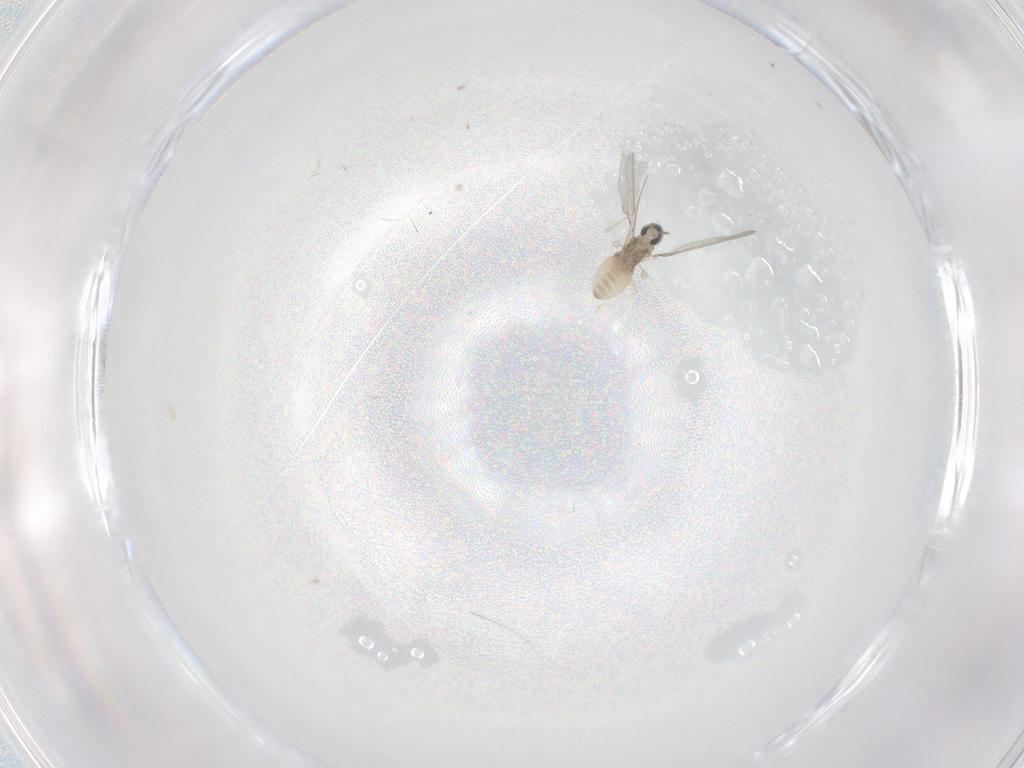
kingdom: Animalia
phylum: Arthropoda
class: Insecta
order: Diptera
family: Chironomidae
